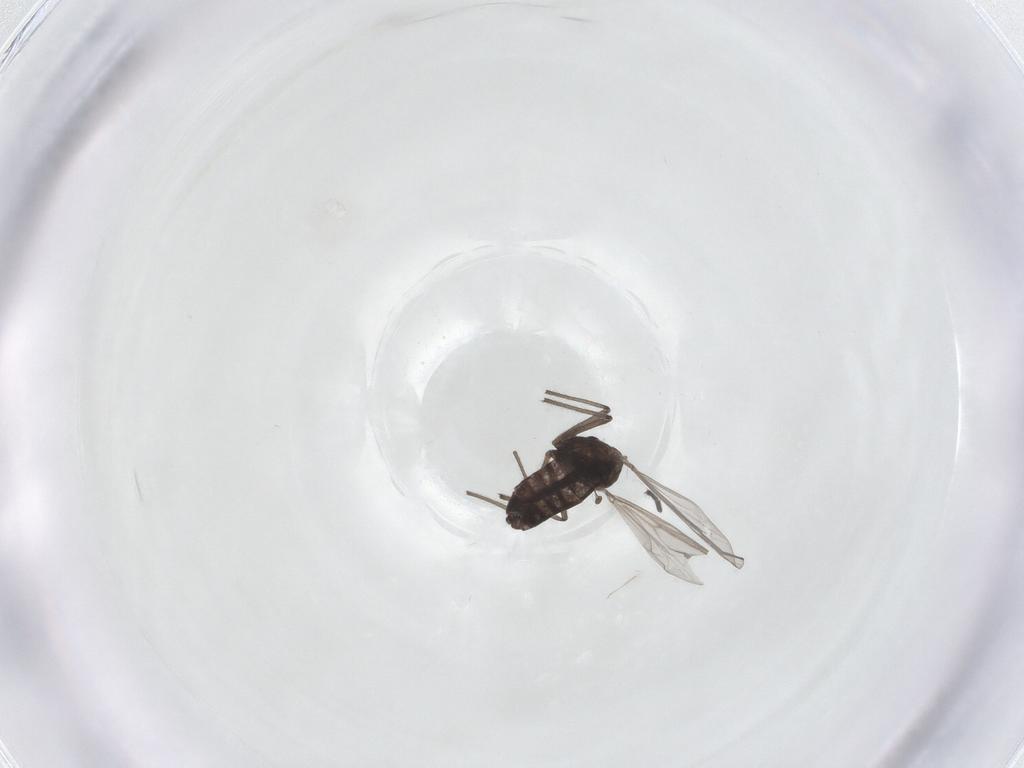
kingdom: Animalia
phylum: Arthropoda
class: Insecta
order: Diptera
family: Chironomidae
